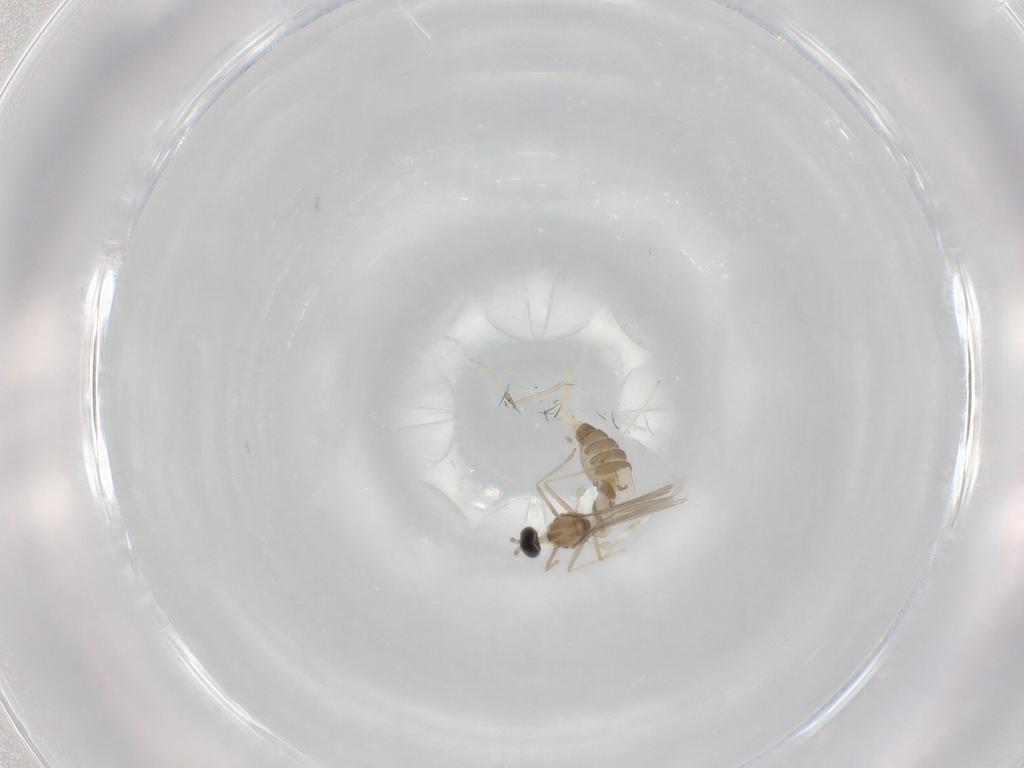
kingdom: Animalia
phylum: Arthropoda
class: Insecta
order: Diptera
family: Cecidomyiidae
